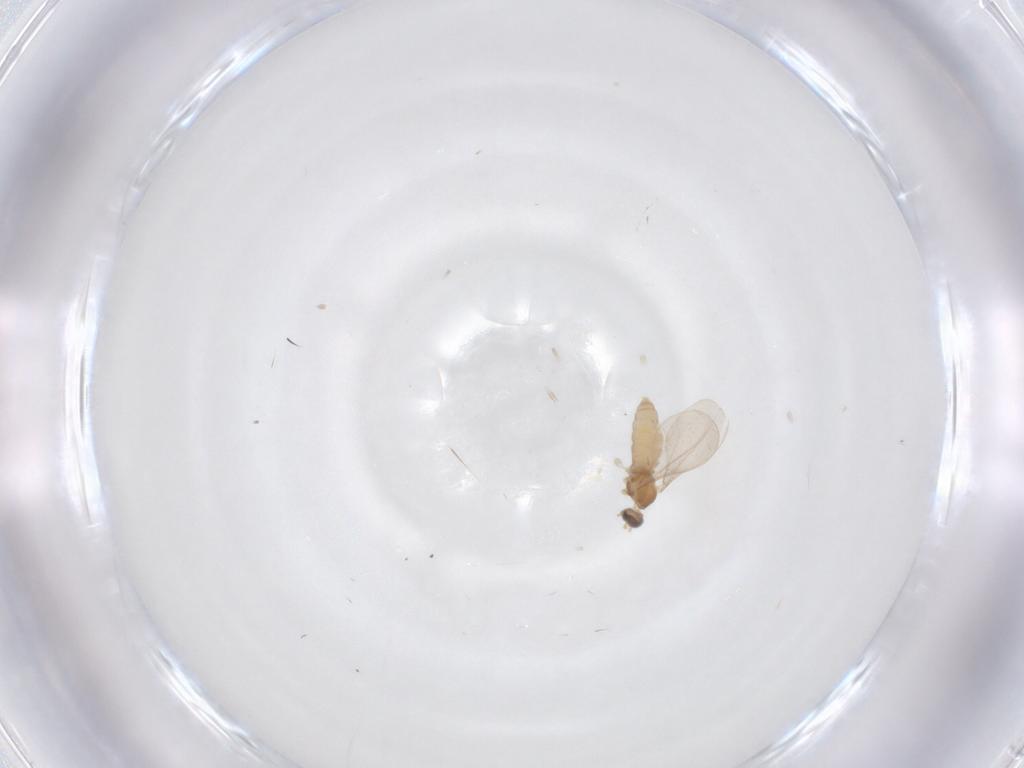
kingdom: Animalia
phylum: Arthropoda
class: Insecta
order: Diptera
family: Cecidomyiidae
